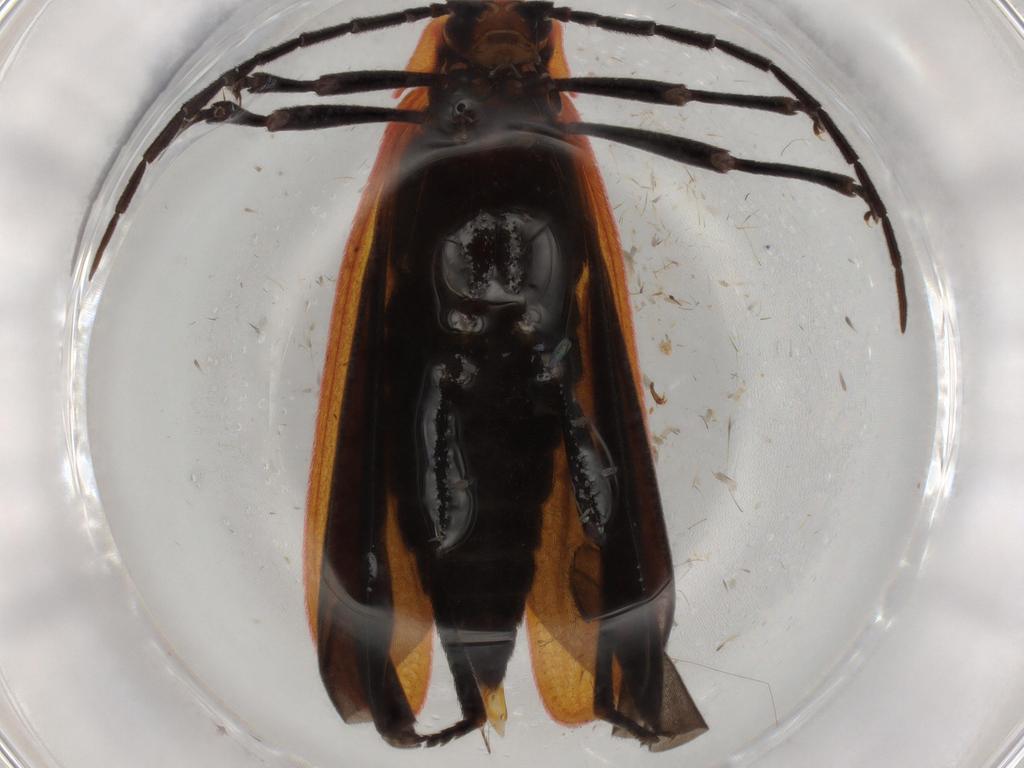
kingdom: Animalia
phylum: Arthropoda
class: Insecta
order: Coleoptera
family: Lycidae
